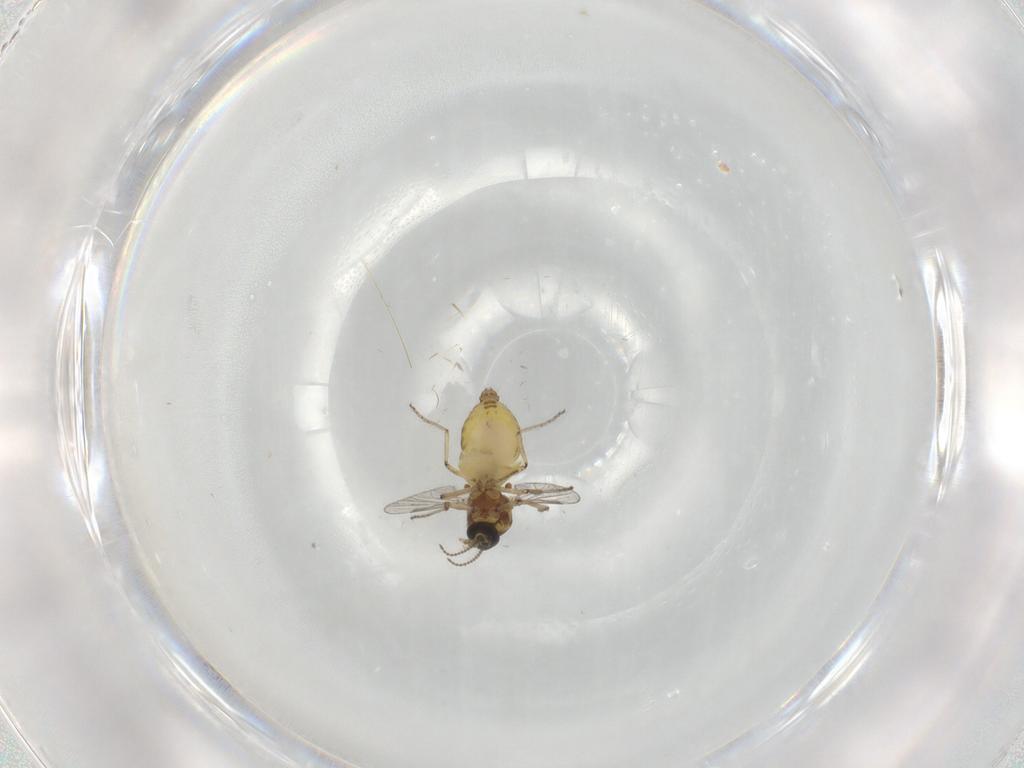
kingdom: Animalia
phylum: Arthropoda
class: Insecta
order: Diptera
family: Ceratopogonidae
